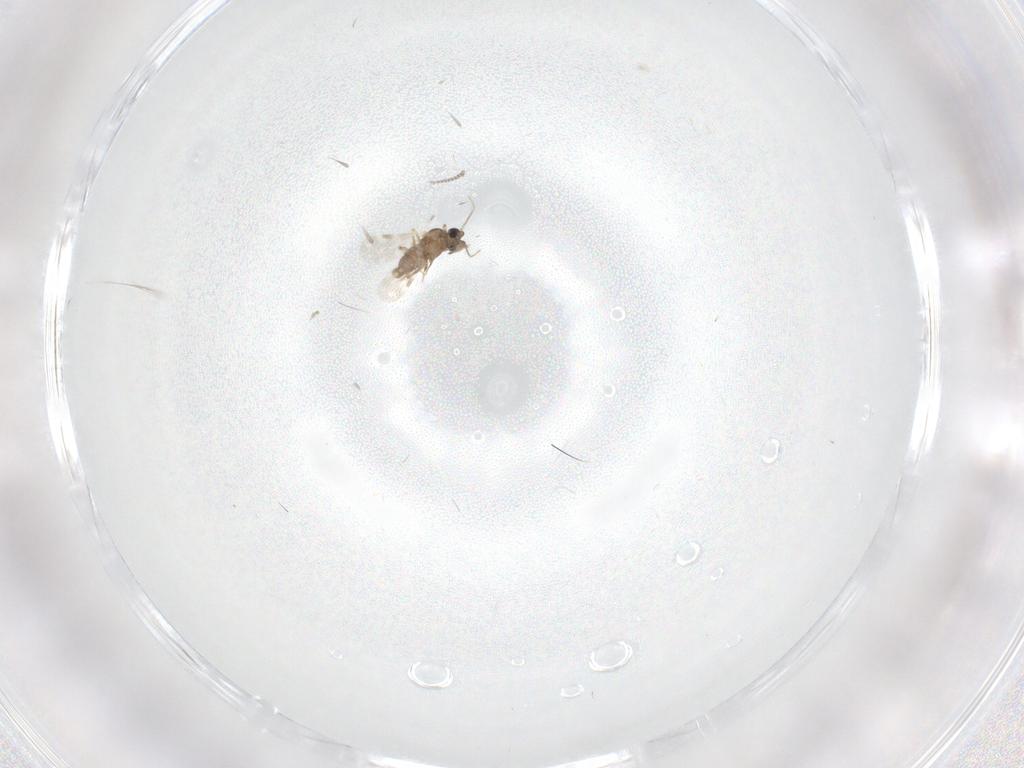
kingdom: Animalia
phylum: Arthropoda
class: Insecta
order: Diptera
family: Cecidomyiidae
